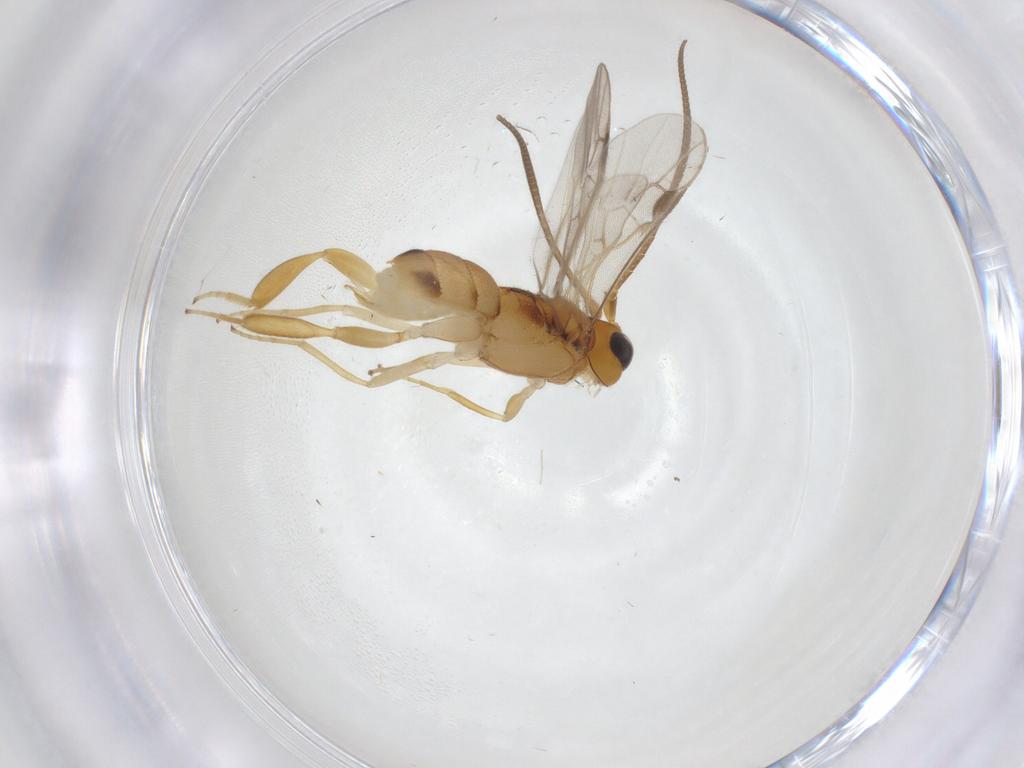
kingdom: Animalia
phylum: Arthropoda
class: Insecta
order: Hymenoptera
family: Braconidae
